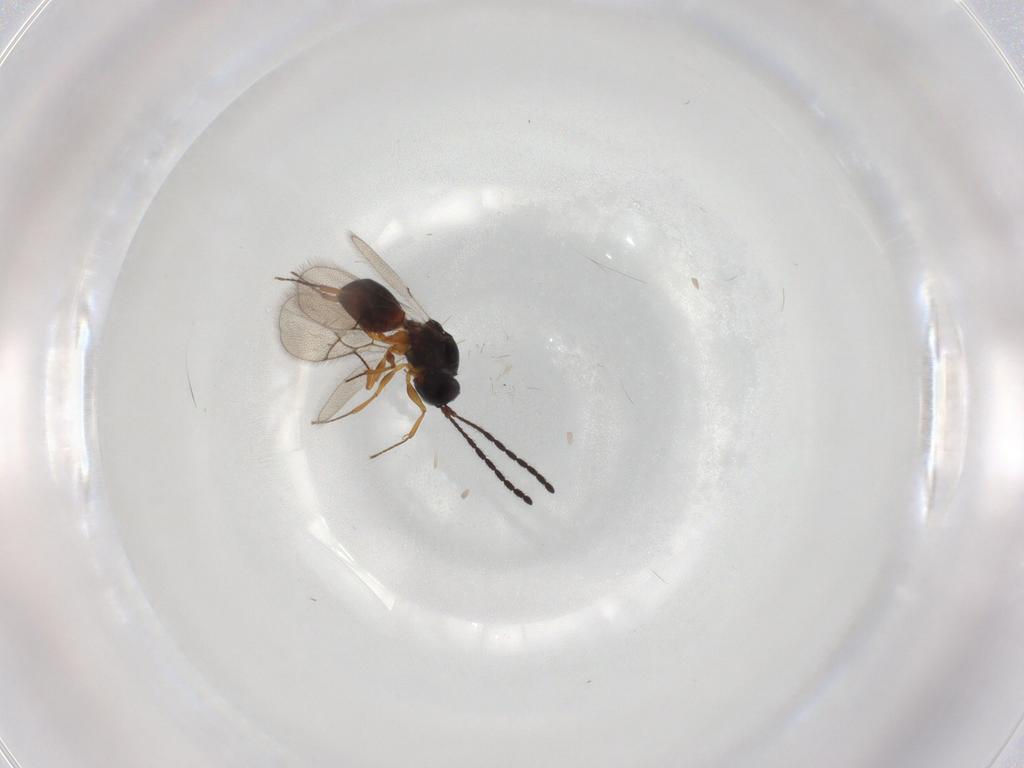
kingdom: Animalia
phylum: Arthropoda
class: Insecta
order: Hymenoptera
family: Figitidae
